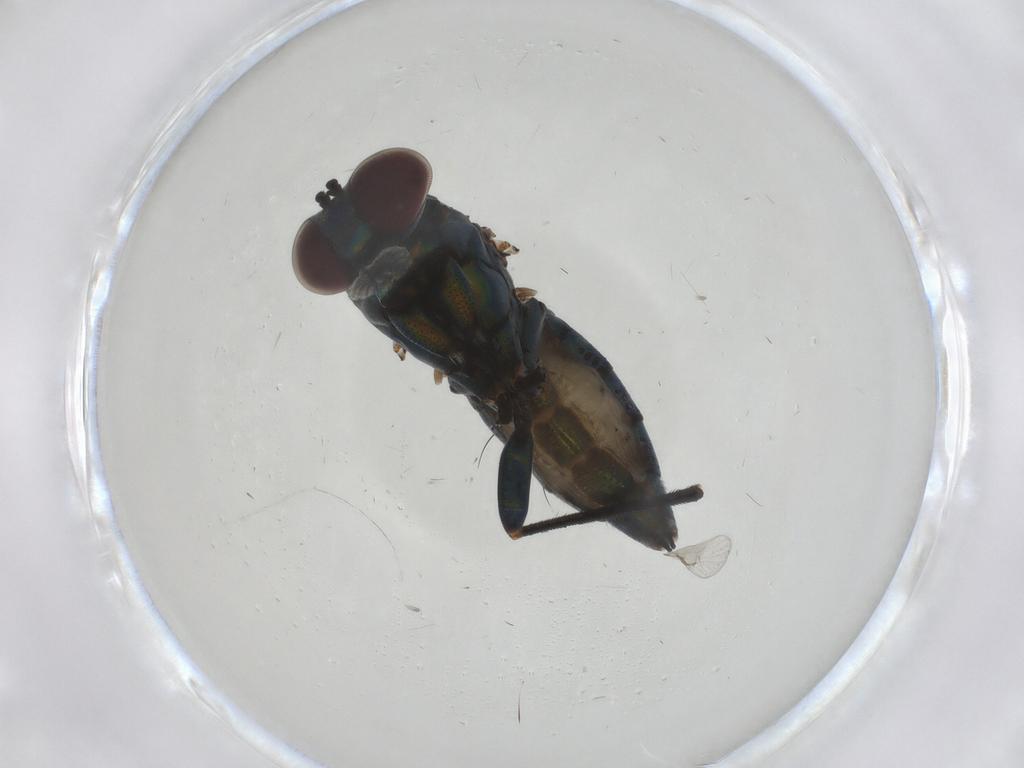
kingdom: Animalia
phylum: Arthropoda
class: Insecta
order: Diptera
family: Dolichopodidae
